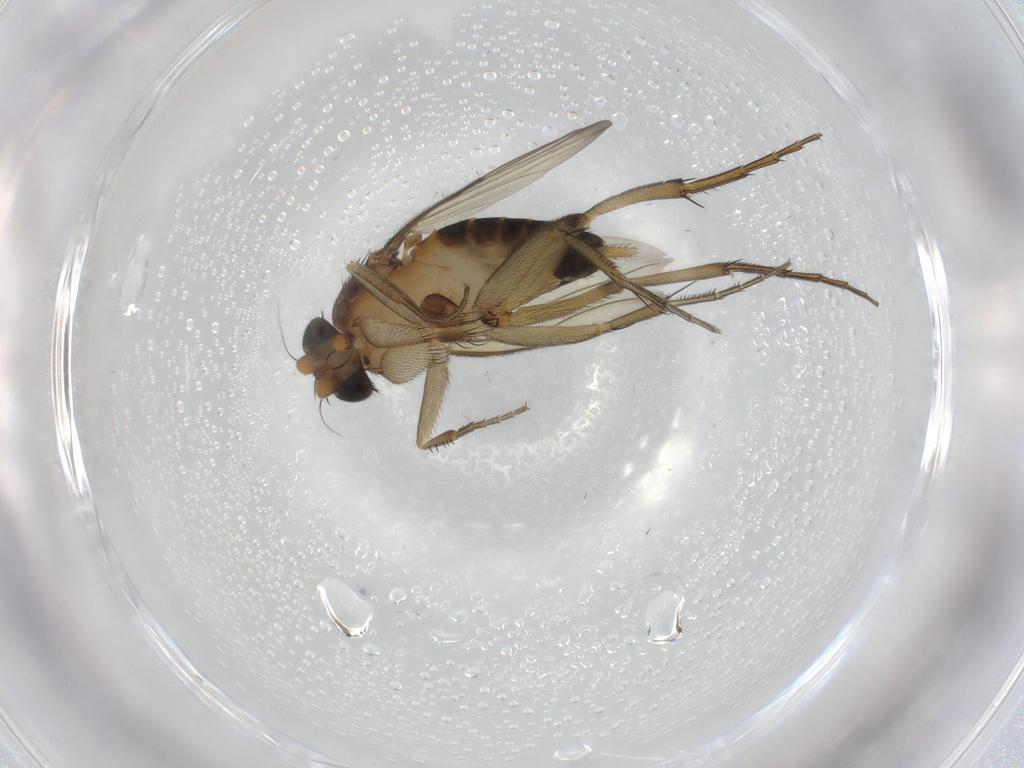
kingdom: Animalia
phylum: Arthropoda
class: Insecta
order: Diptera
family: Phoridae
